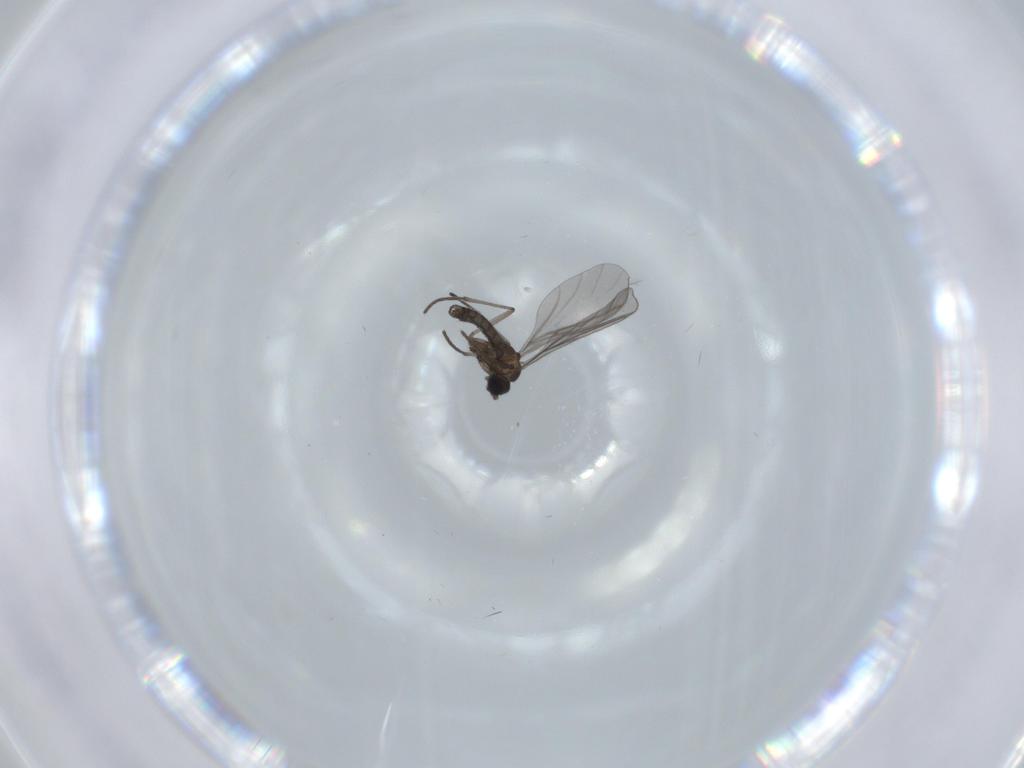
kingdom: Animalia
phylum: Arthropoda
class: Insecta
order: Diptera
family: Sciaridae
